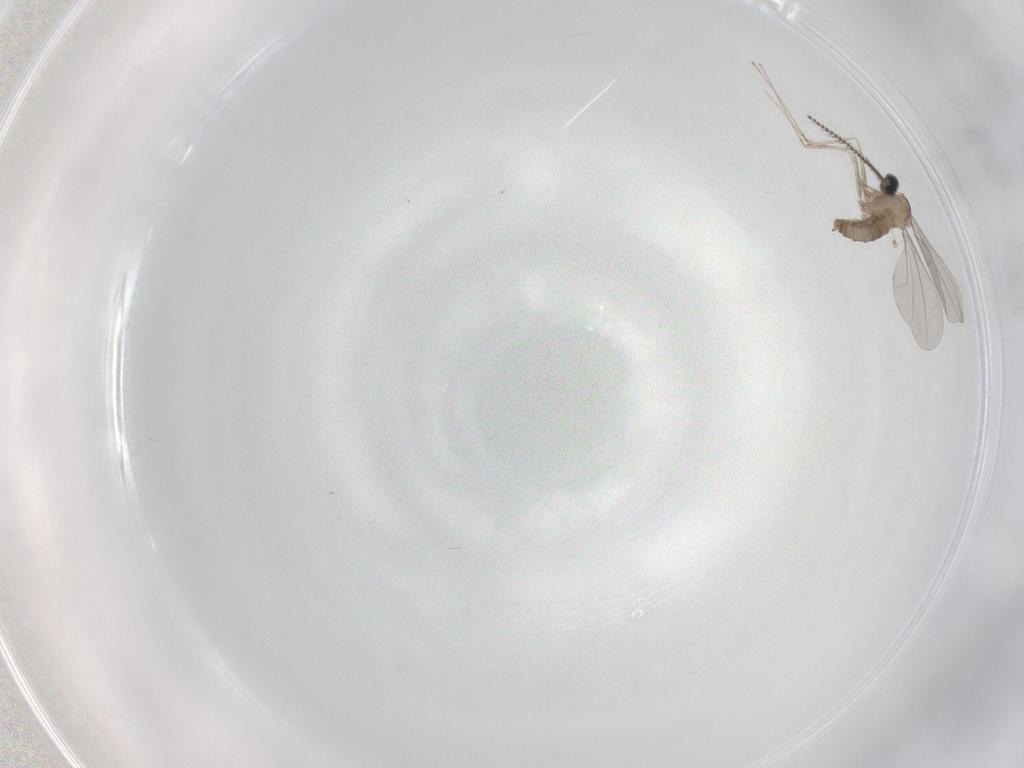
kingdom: Animalia
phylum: Arthropoda
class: Insecta
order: Diptera
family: Cecidomyiidae
